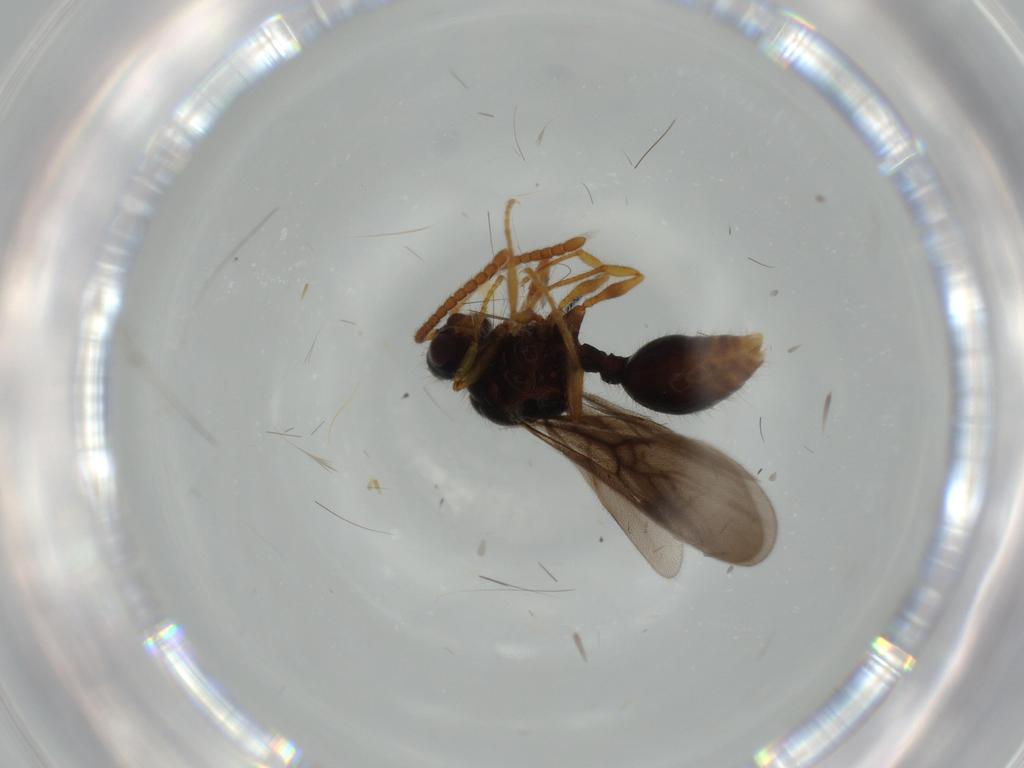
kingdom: Animalia
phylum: Arthropoda
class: Insecta
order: Hymenoptera
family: Formicidae
